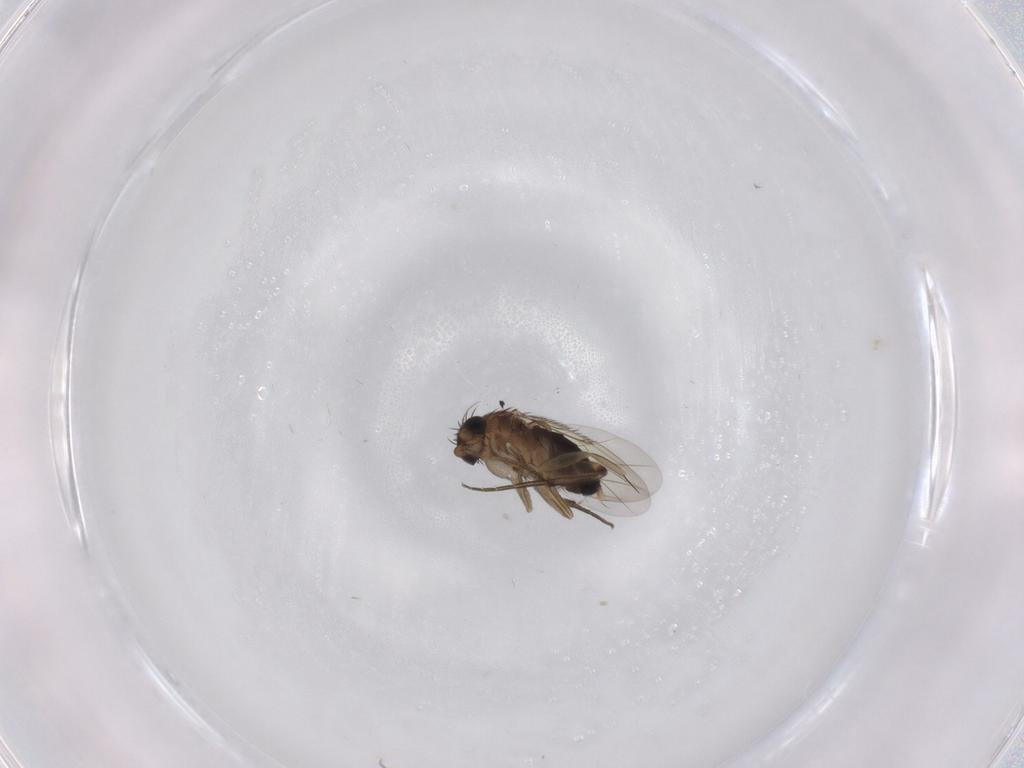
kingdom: Animalia
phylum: Arthropoda
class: Insecta
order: Diptera
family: Phoridae
